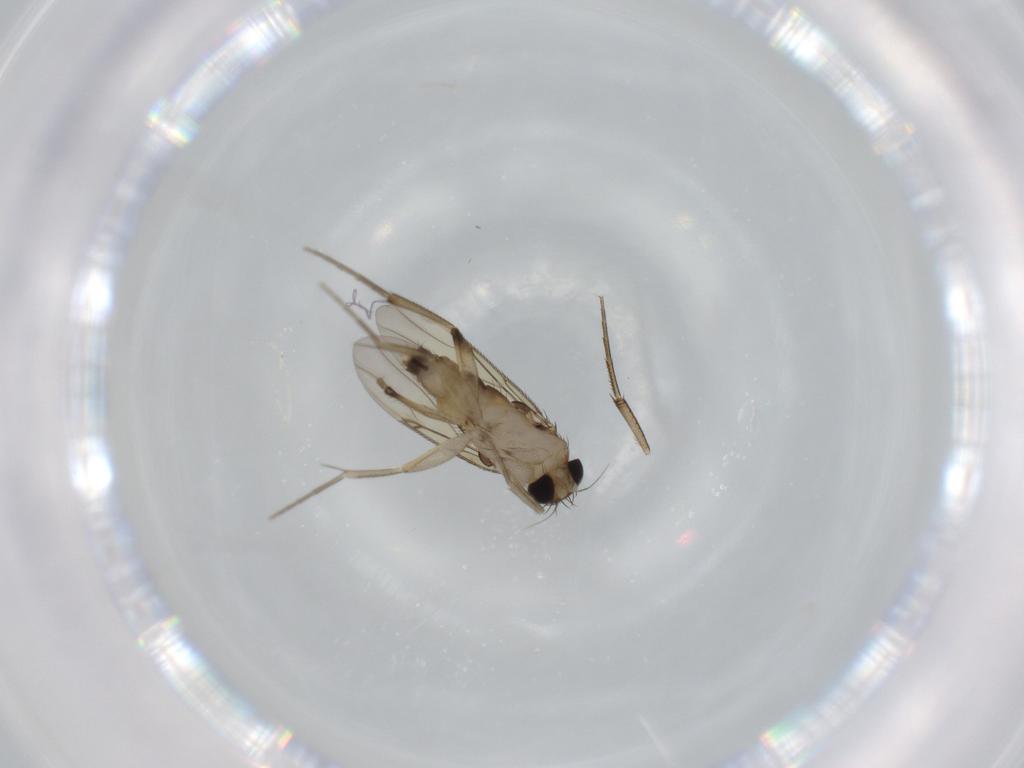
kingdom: Animalia
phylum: Arthropoda
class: Insecta
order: Diptera
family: Phoridae
